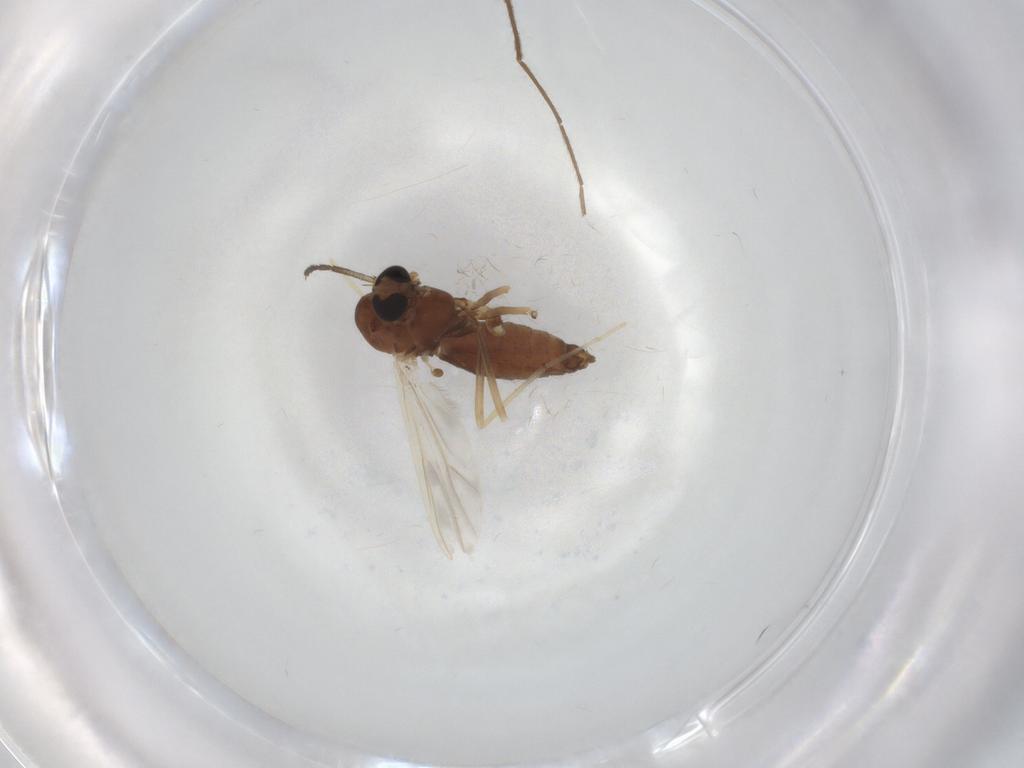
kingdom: Animalia
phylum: Arthropoda
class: Insecta
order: Diptera
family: Chironomidae
